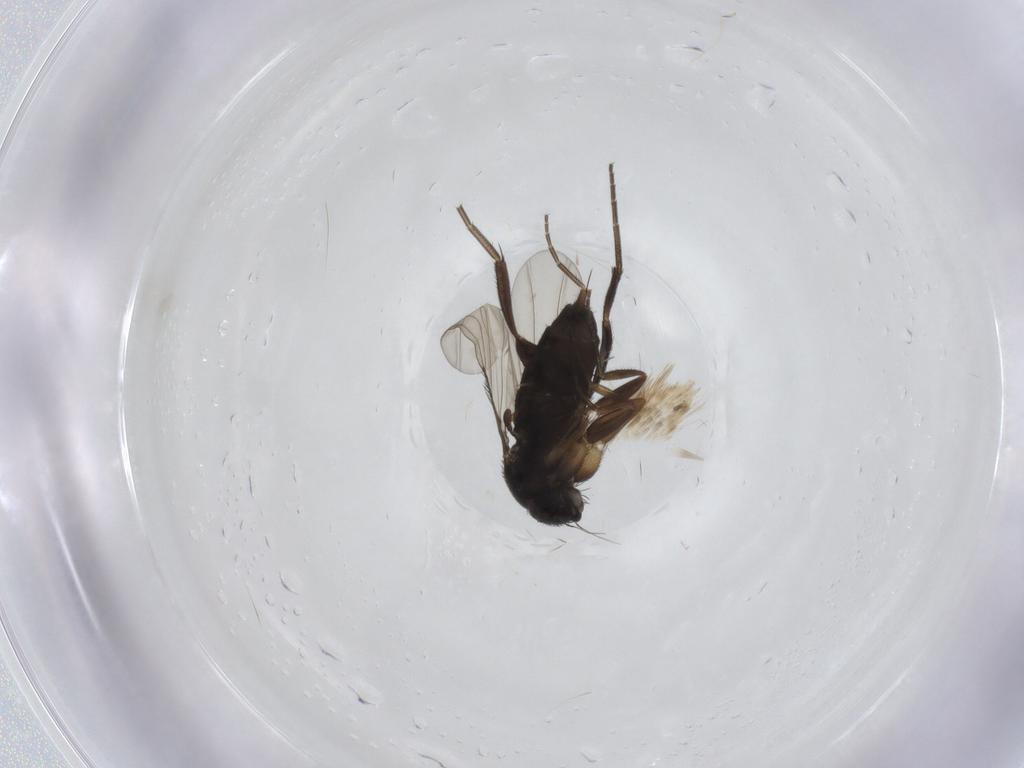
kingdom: Animalia
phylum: Arthropoda
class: Insecta
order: Diptera
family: Phoridae
